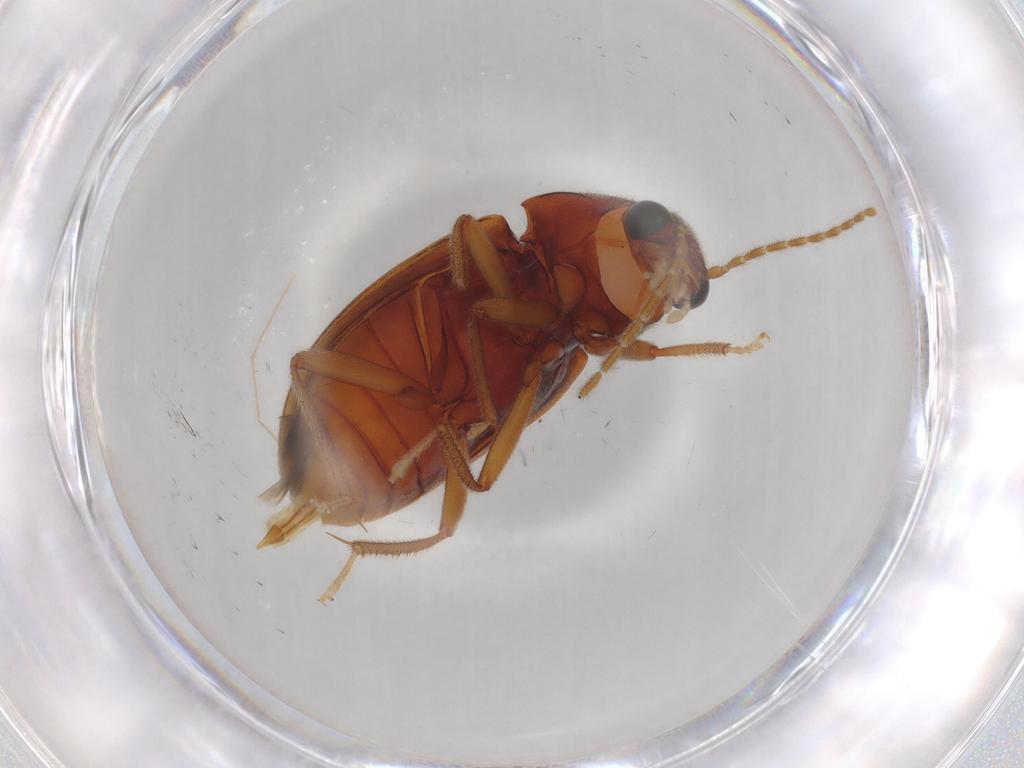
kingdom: Animalia
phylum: Arthropoda
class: Insecta
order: Coleoptera
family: Ptilodactylidae
